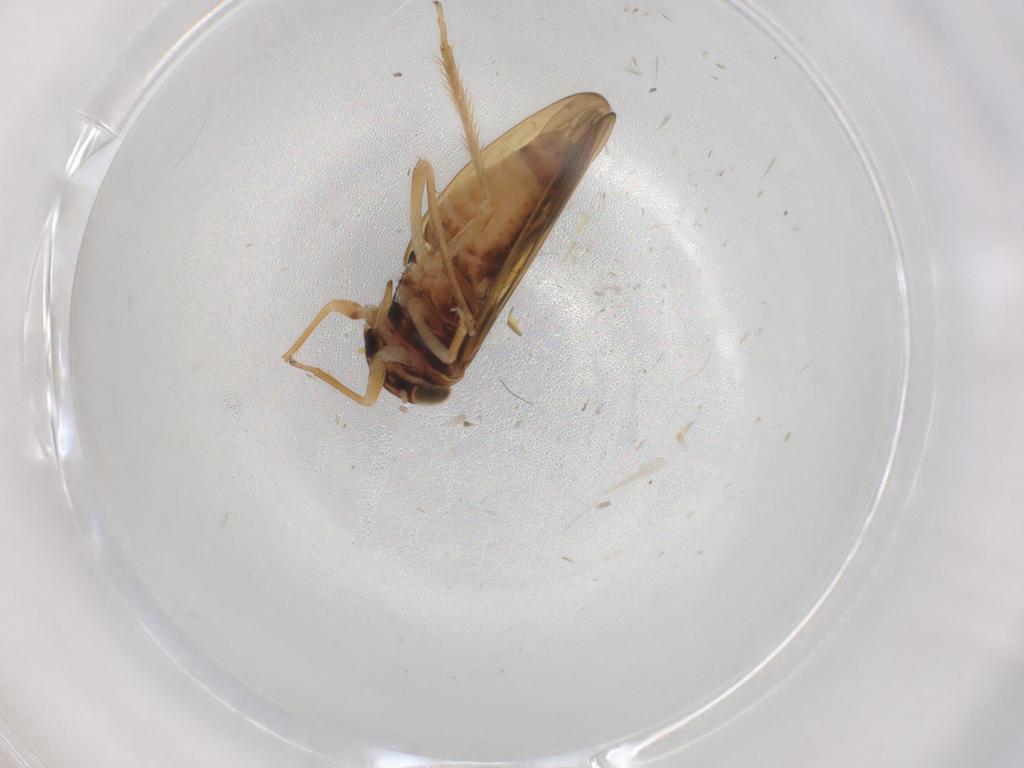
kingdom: Animalia
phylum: Arthropoda
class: Insecta
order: Hemiptera
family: Cicadellidae
